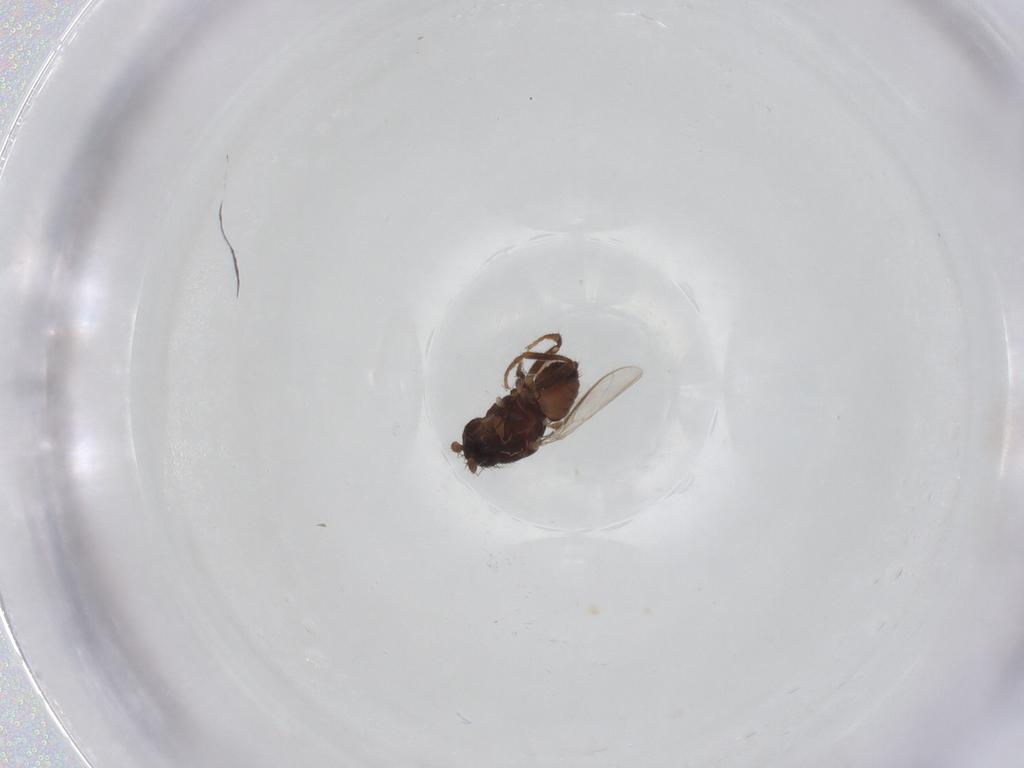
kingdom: Animalia
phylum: Arthropoda
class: Insecta
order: Diptera
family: Sphaeroceridae
